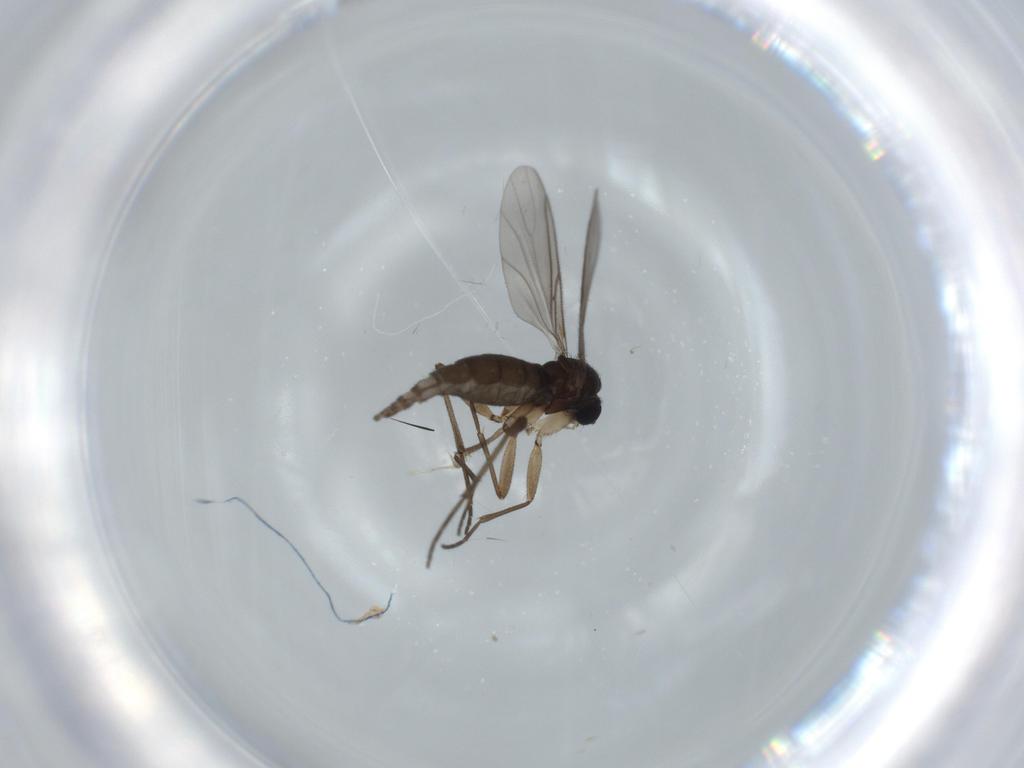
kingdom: Animalia
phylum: Arthropoda
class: Insecta
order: Diptera
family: Sciaridae
